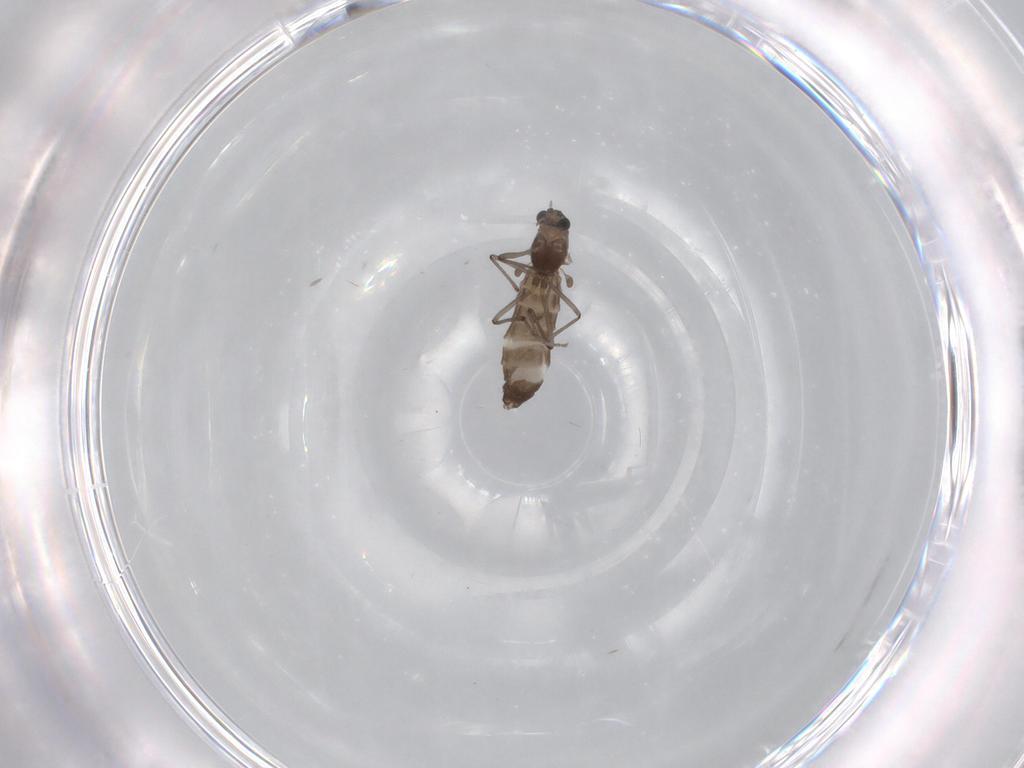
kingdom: Animalia
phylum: Arthropoda
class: Insecta
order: Diptera
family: Chironomidae
